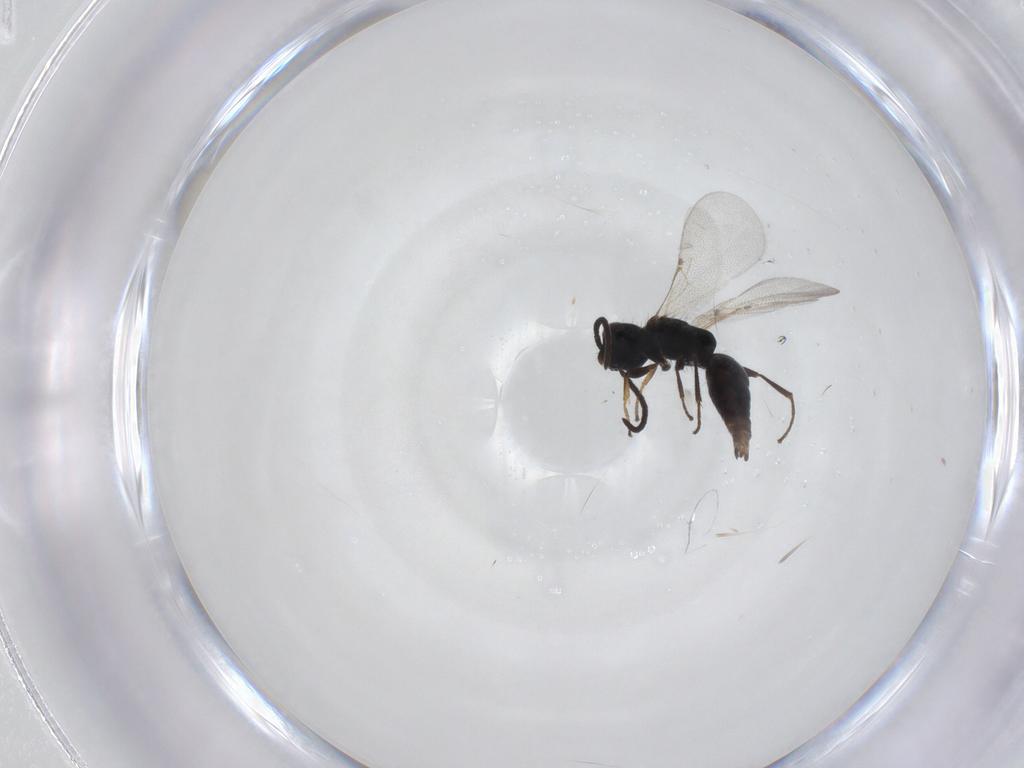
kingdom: Animalia
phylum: Arthropoda
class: Insecta
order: Hymenoptera
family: Bethylidae
